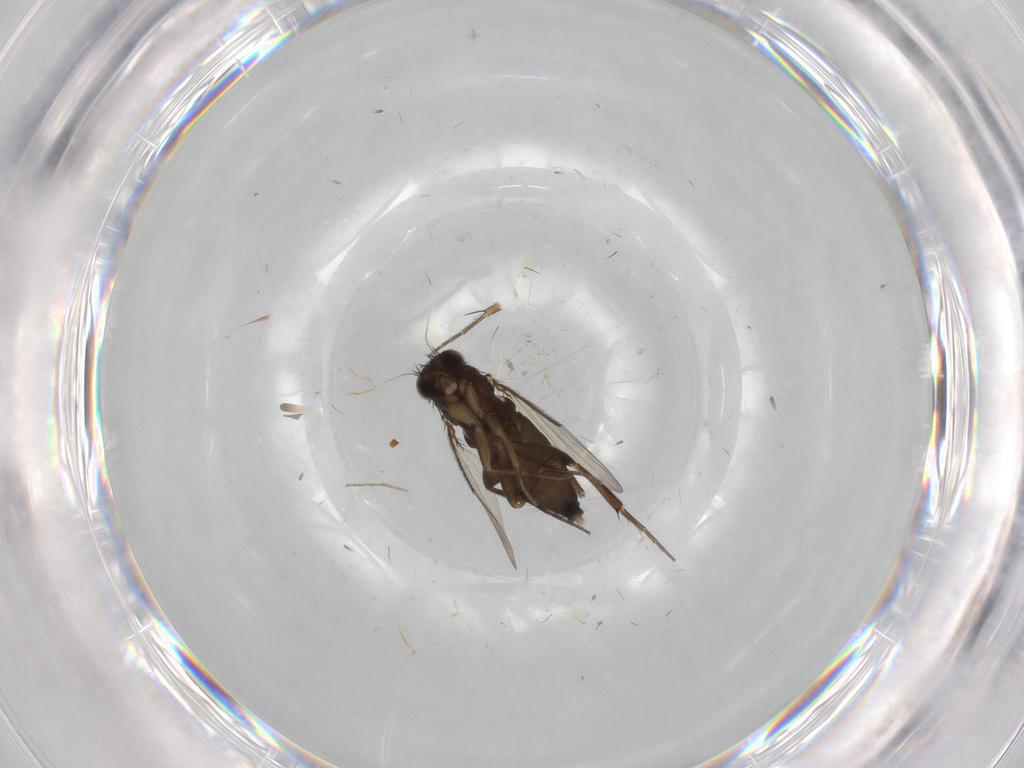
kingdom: Animalia
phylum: Arthropoda
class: Insecta
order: Diptera
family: Phoridae
